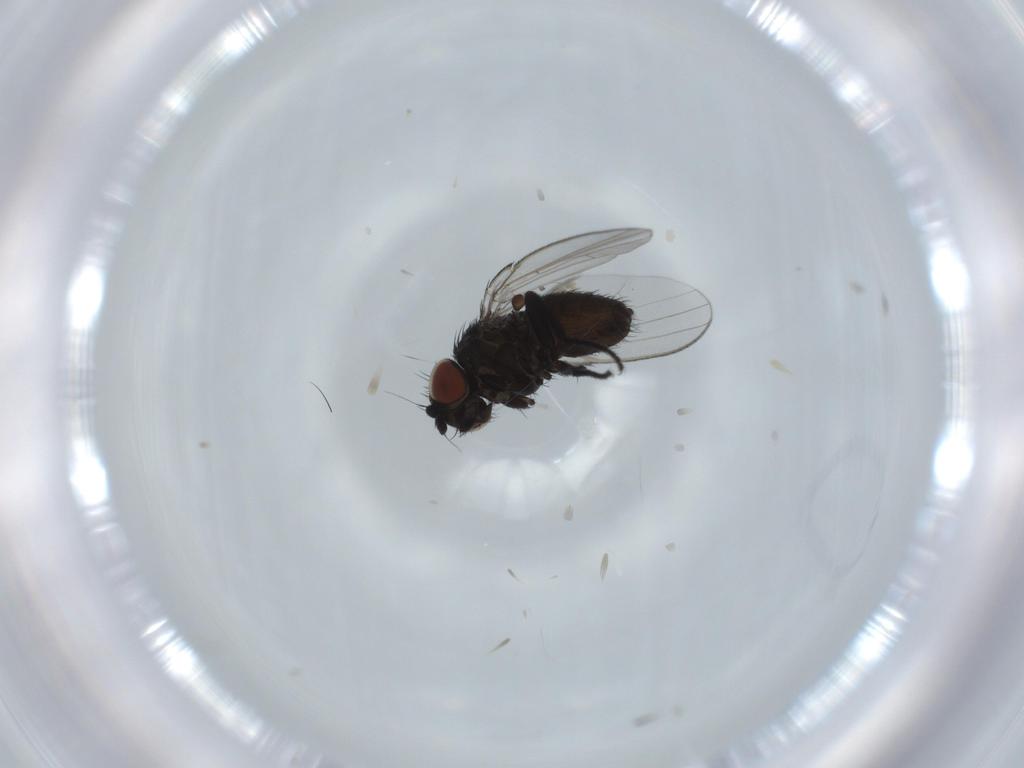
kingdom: Animalia
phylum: Arthropoda
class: Insecta
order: Diptera
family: Milichiidae
